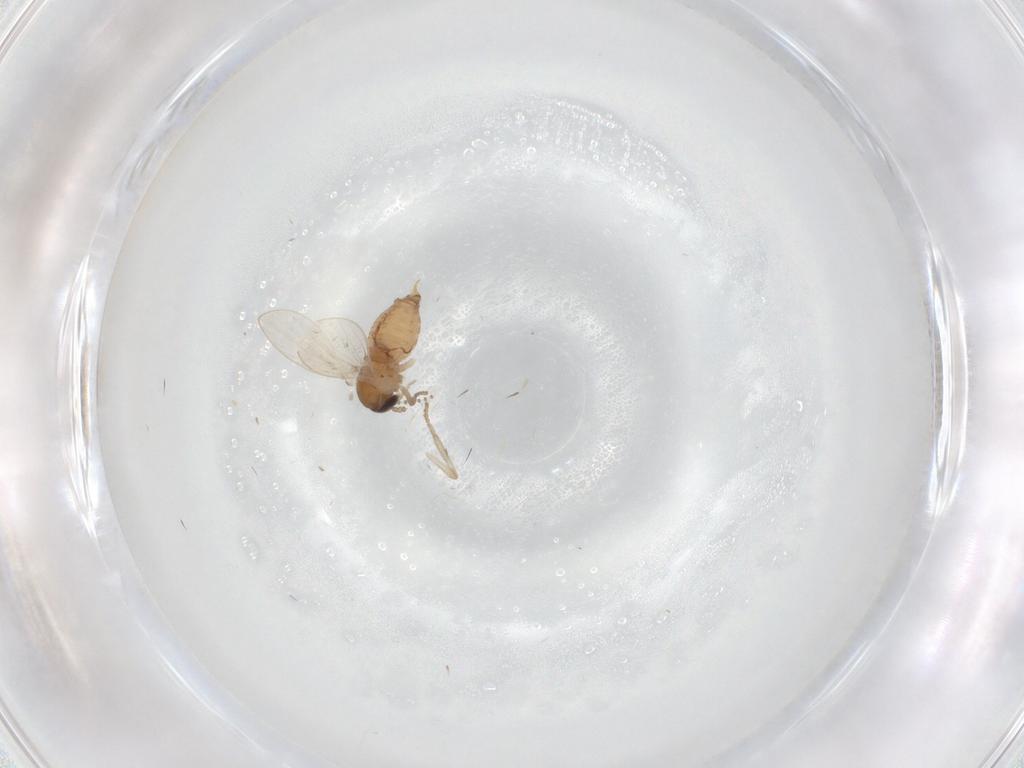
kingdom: Animalia
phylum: Arthropoda
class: Insecta
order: Diptera
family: Psychodidae
